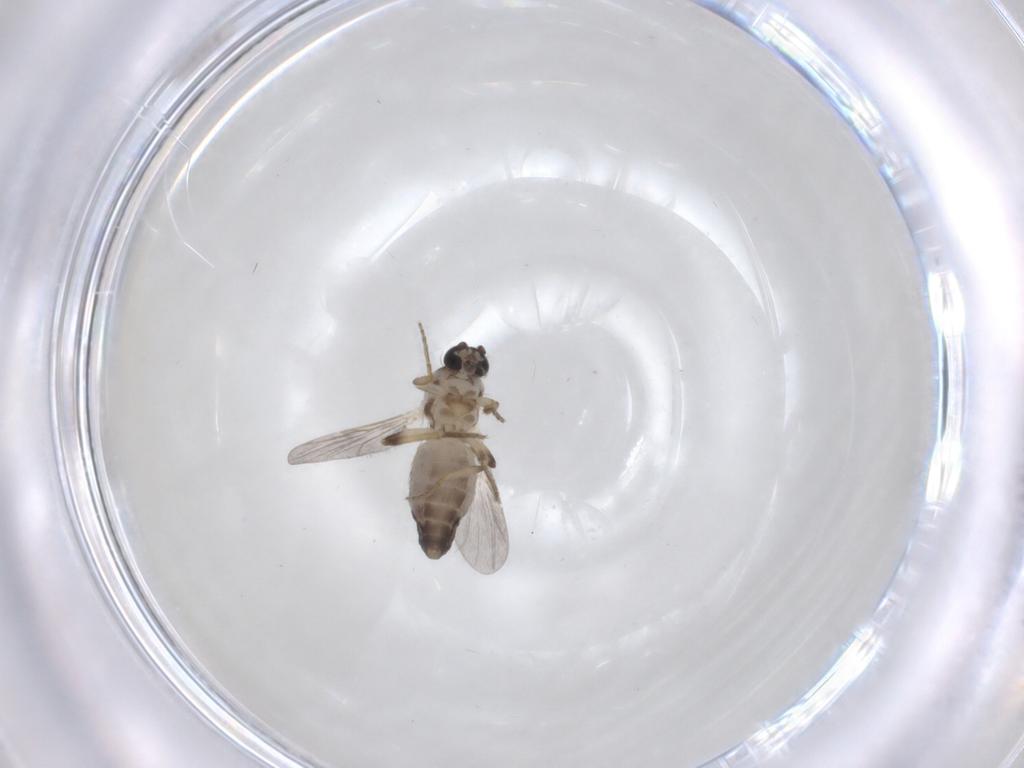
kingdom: Animalia
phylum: Arthropoda
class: Insecta
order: Diptera
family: Ceratopogonidae
